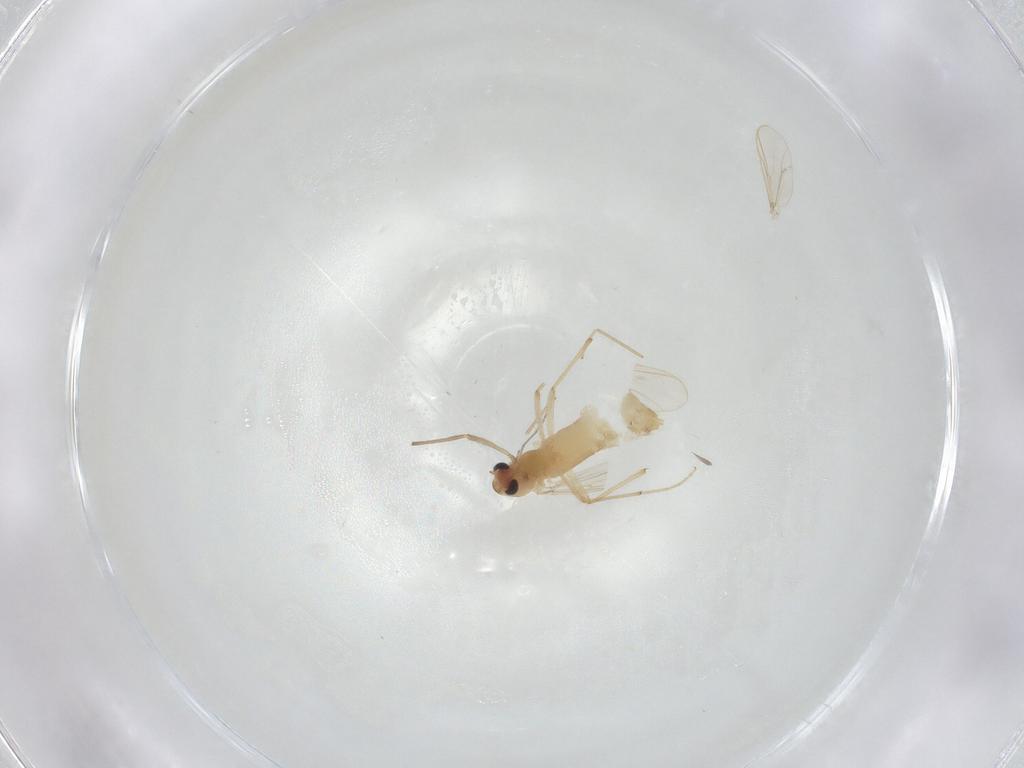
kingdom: Animalia
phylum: Arthropoda
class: Insecta
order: Diptera
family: Chironomidae
